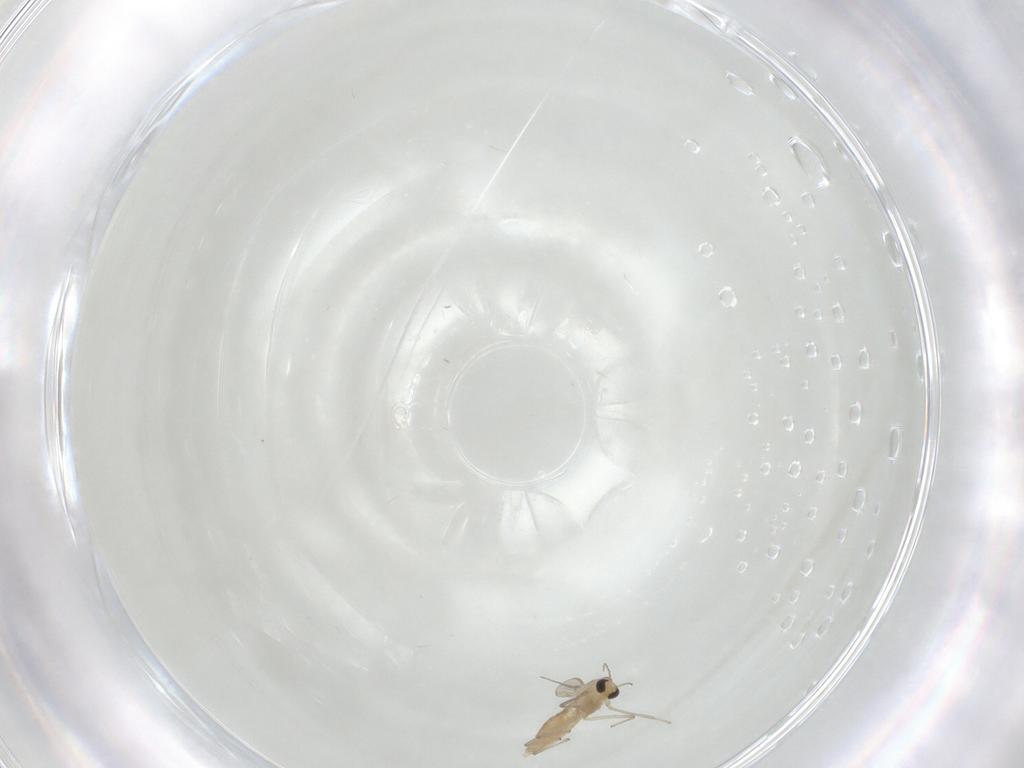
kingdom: Animalia
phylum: Arthropoda
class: Insecta
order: Diptera
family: Chironomidae
